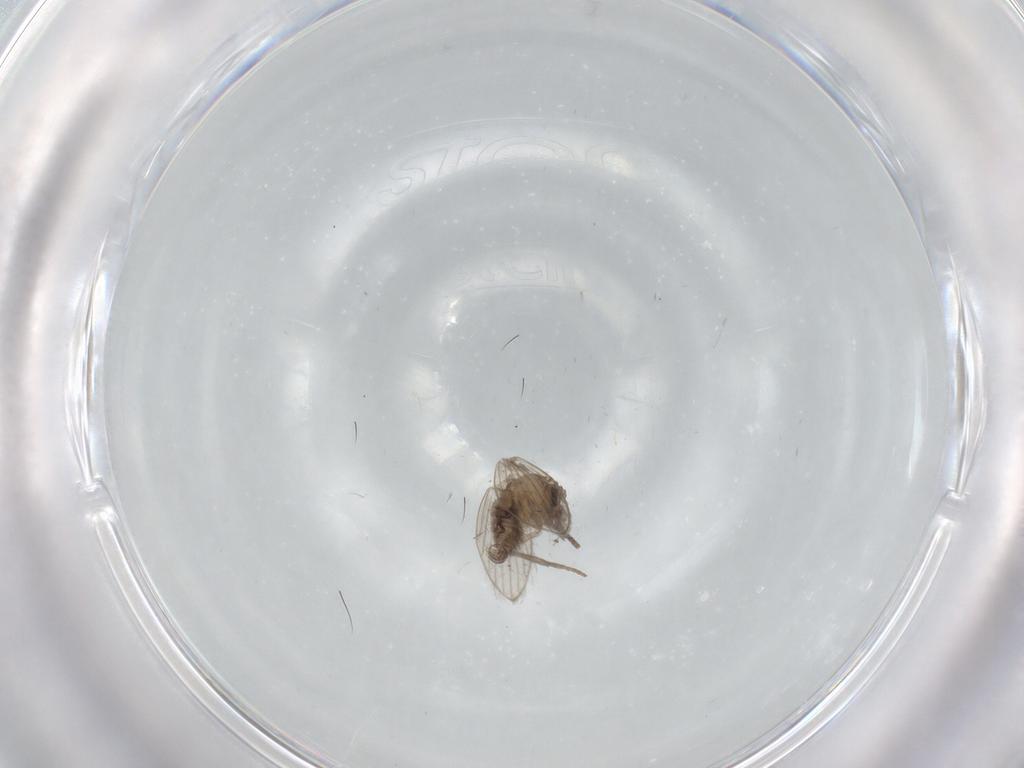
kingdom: Animalia
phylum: Arthropoda
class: Insecta
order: Diptera
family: Psychodidae
